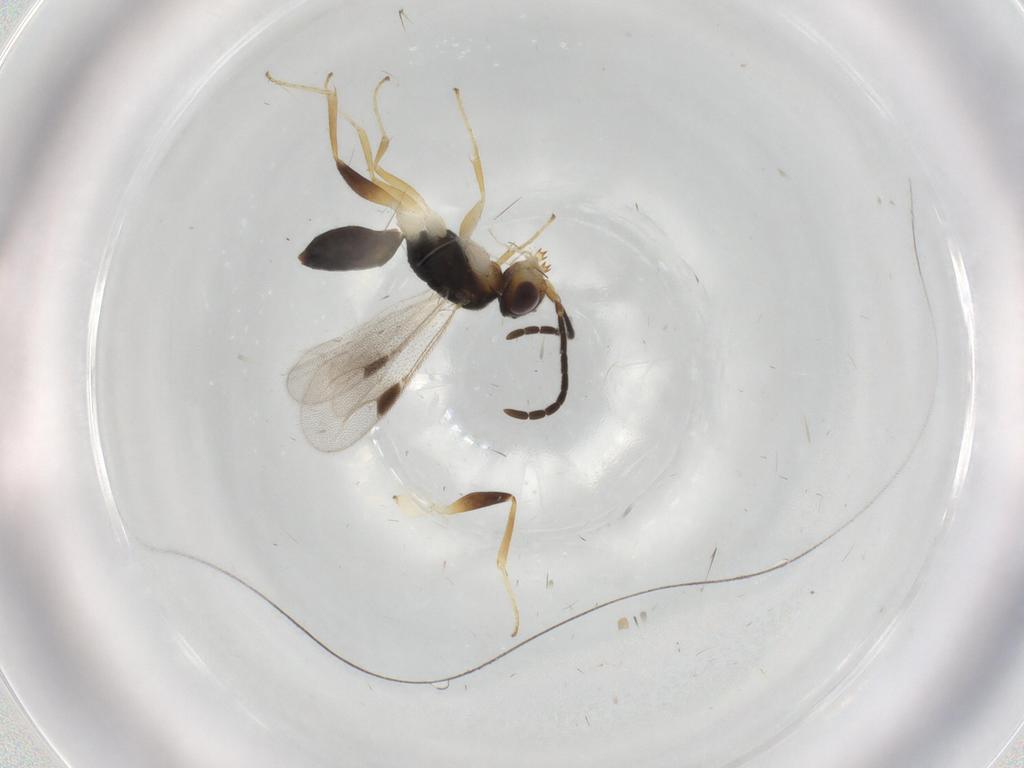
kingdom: Animalia
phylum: Arthropoda
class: Insecta
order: Hymenoptera
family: Dryinidae
